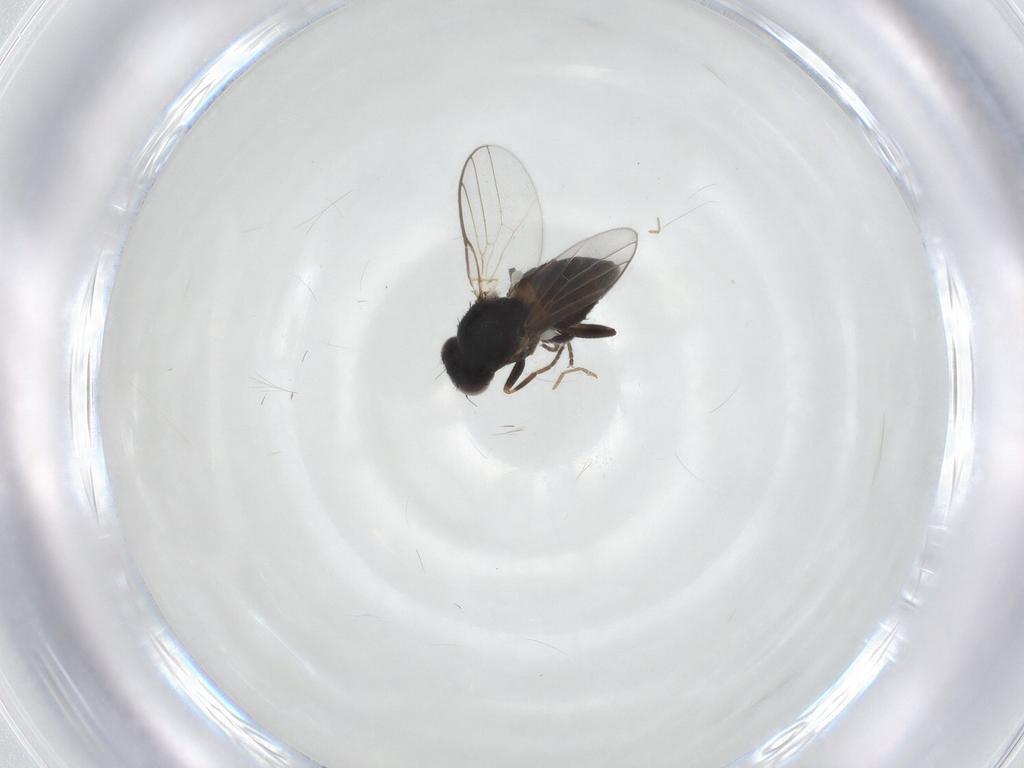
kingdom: Animalia
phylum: Arthropoda
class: Insecta
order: Diptera
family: Chloropidae
